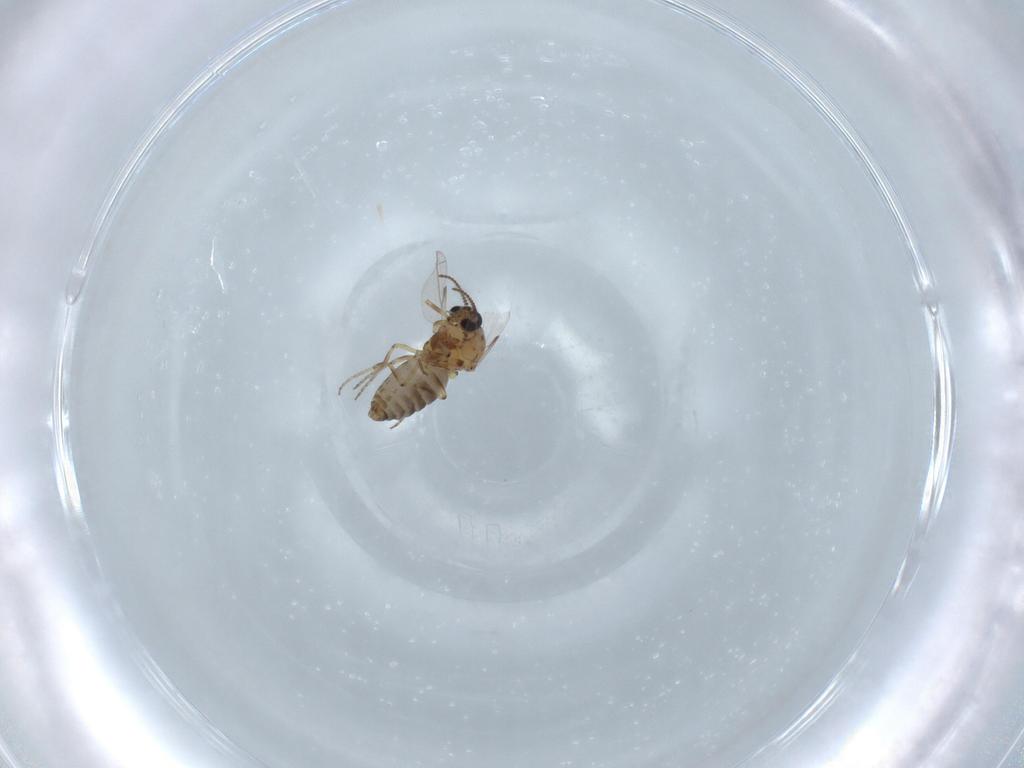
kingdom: Animalia
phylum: Arthropoda
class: Insecta
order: Diptera
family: Ceratopogonidae
